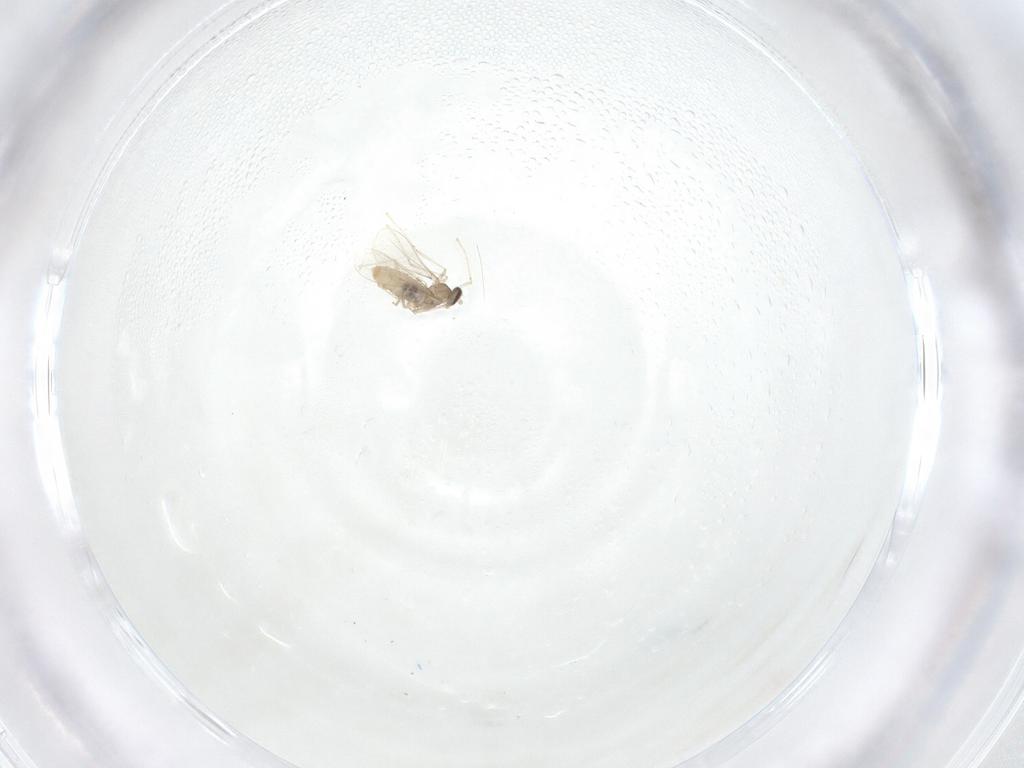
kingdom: Animalia
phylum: Arthropoda
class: Insecta
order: Diptera
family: Cecidomyiidae
